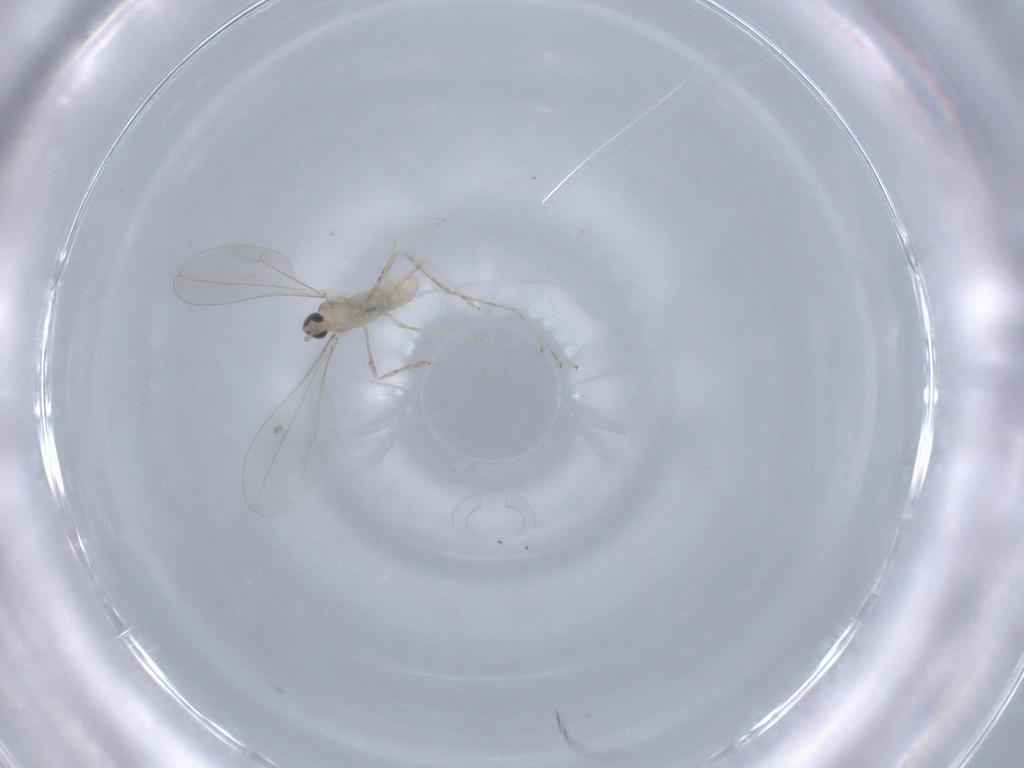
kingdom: Animalia
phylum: Arthropoda
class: Insecta
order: Diptera
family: Cecidomyiidae
